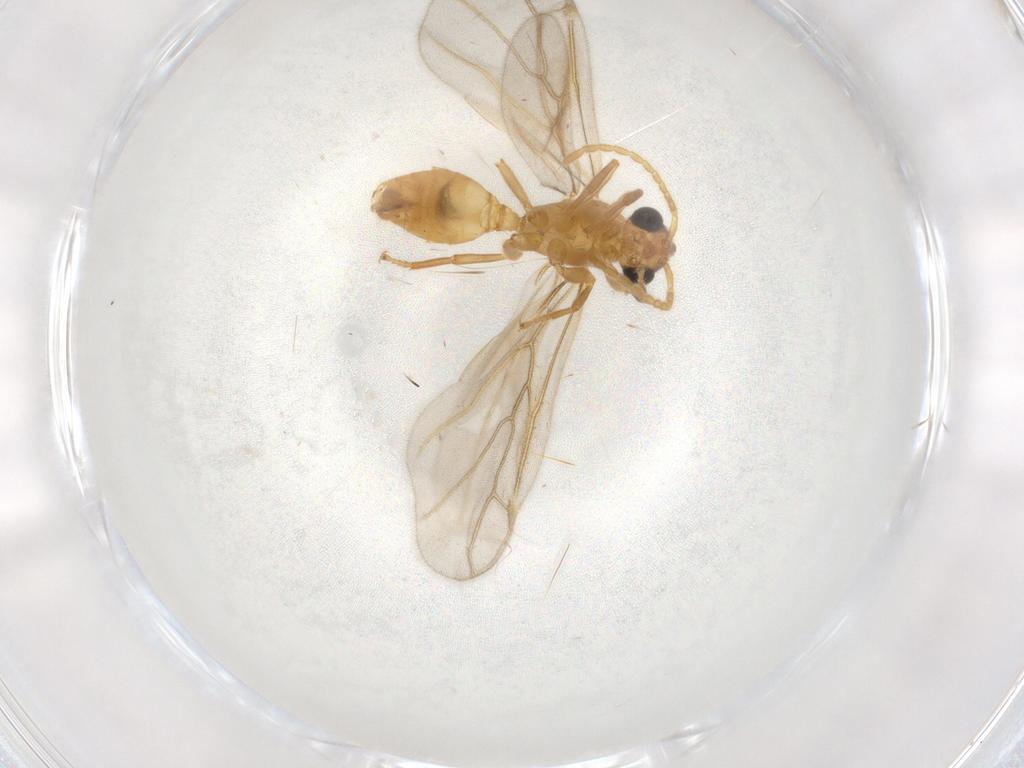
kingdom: Animalia
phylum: Arthropoda
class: Insecta
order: Hymenoptera
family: Formicidae
